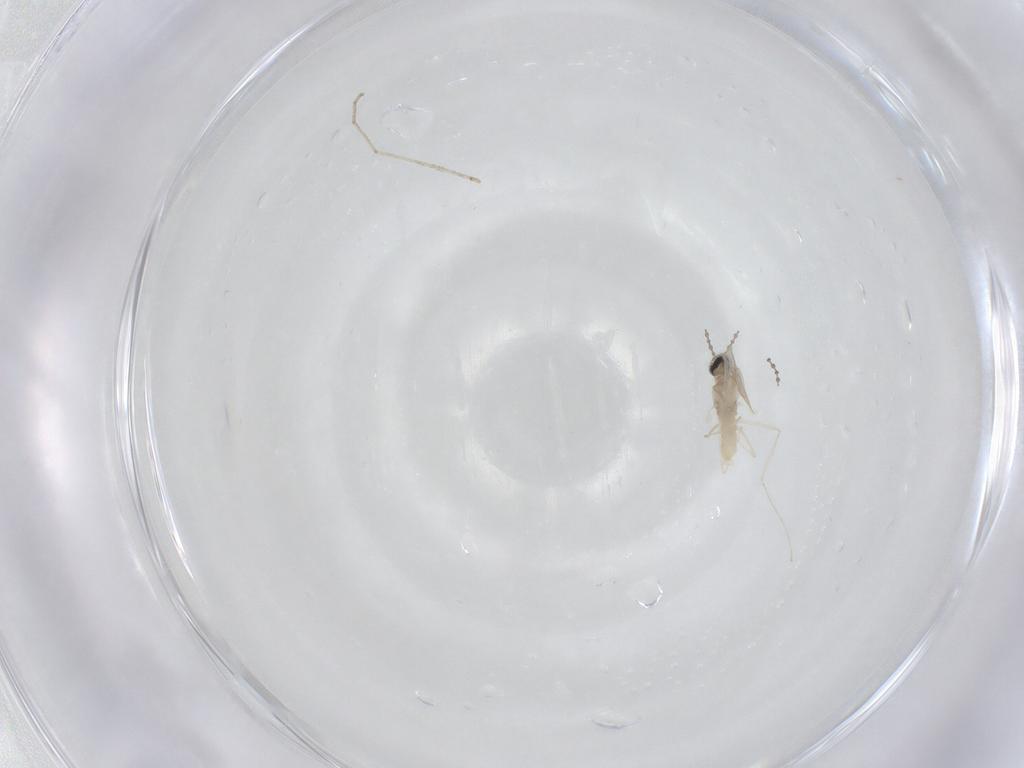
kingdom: Animalia
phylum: Arthropoda
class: Insecta
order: Diptera
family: Cecidomyiidae
